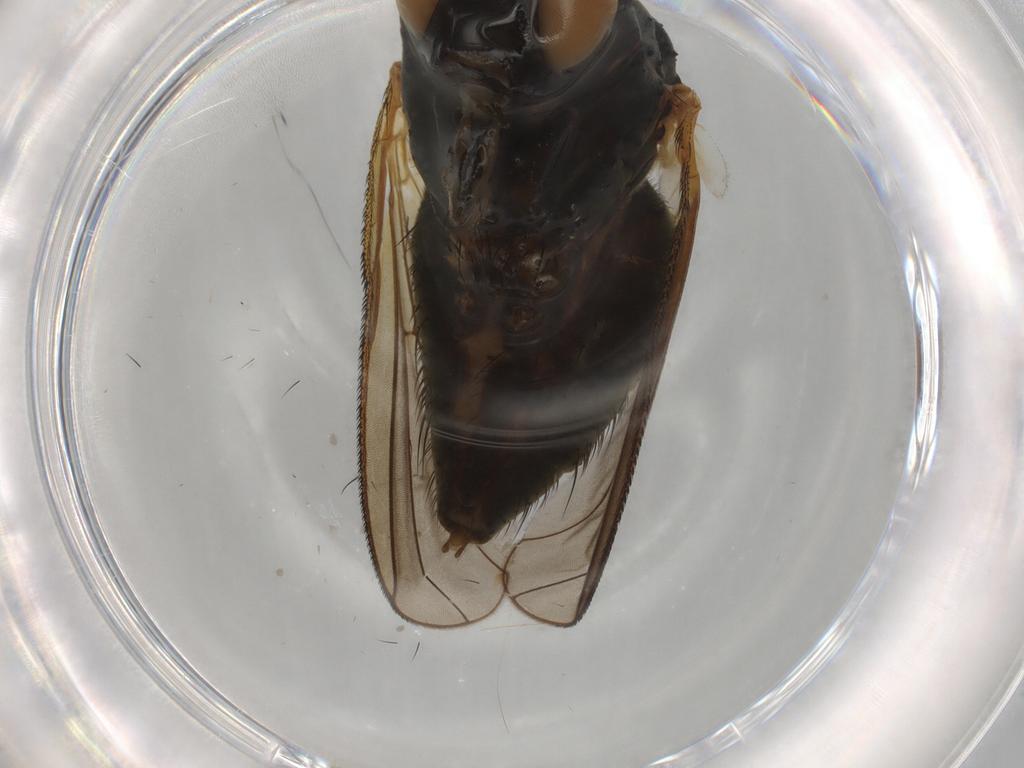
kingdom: Animalia
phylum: Arthropoda
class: Insecta
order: Diptera
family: Anthomyiidae
